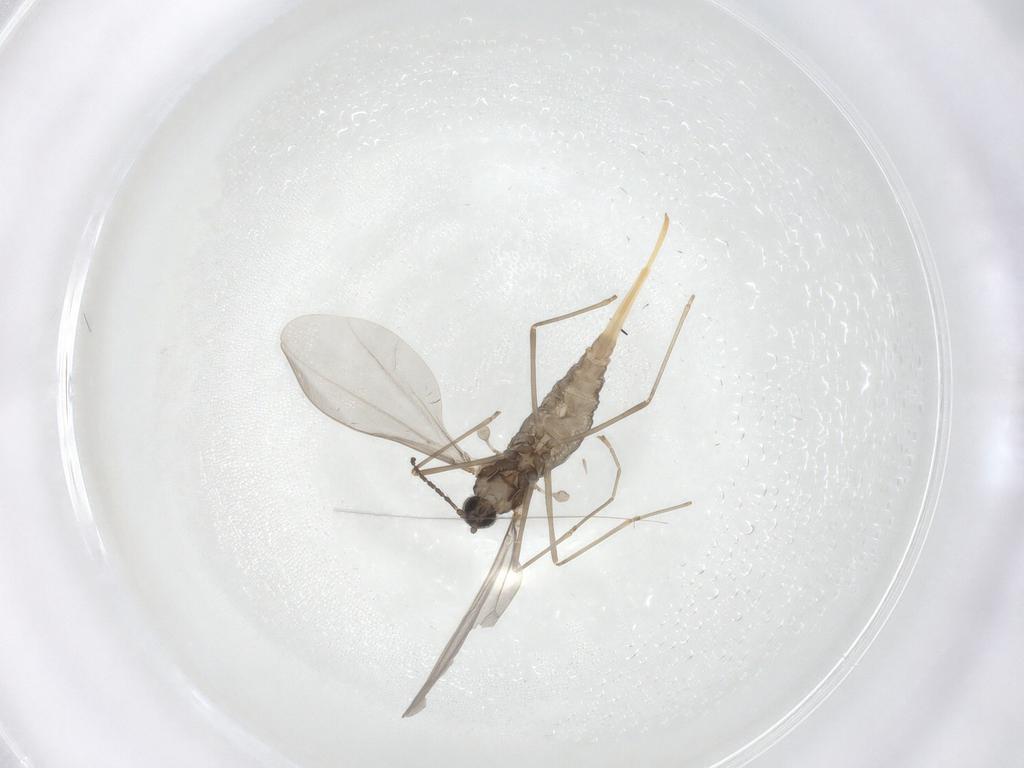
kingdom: Animalia
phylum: Arthropoda
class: Insecta
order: Diptera
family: Cecidomyiidae
